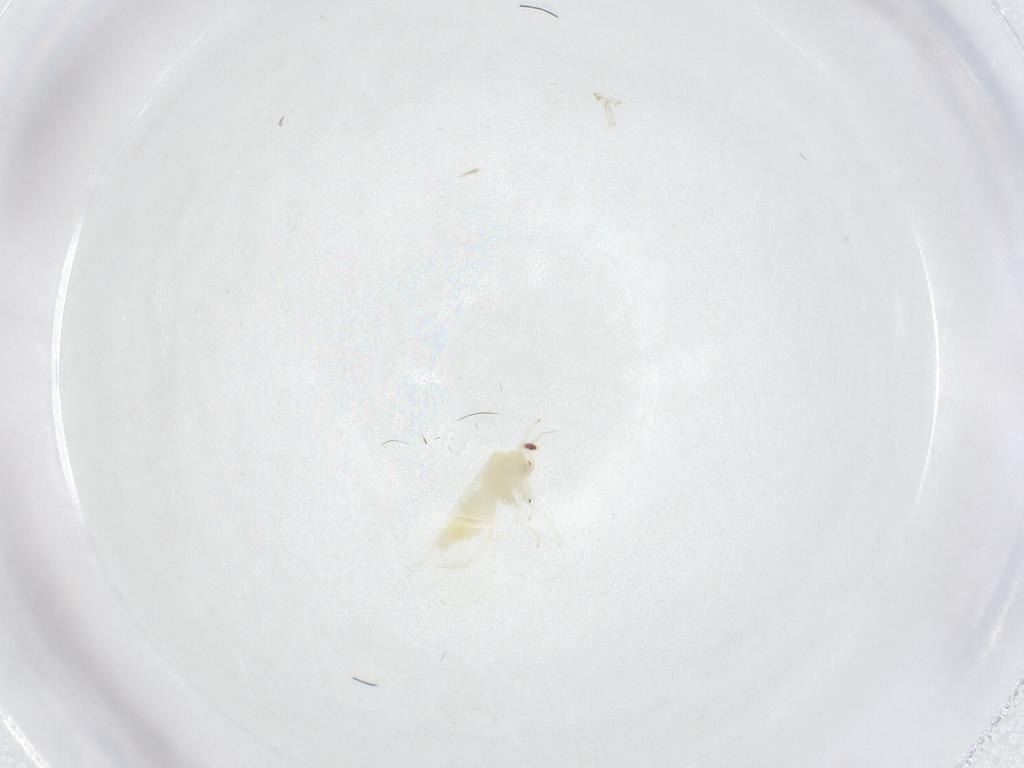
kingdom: Animalia
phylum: Arthropoda
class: Insecta
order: Hemiptera
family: Aleyrodidae
